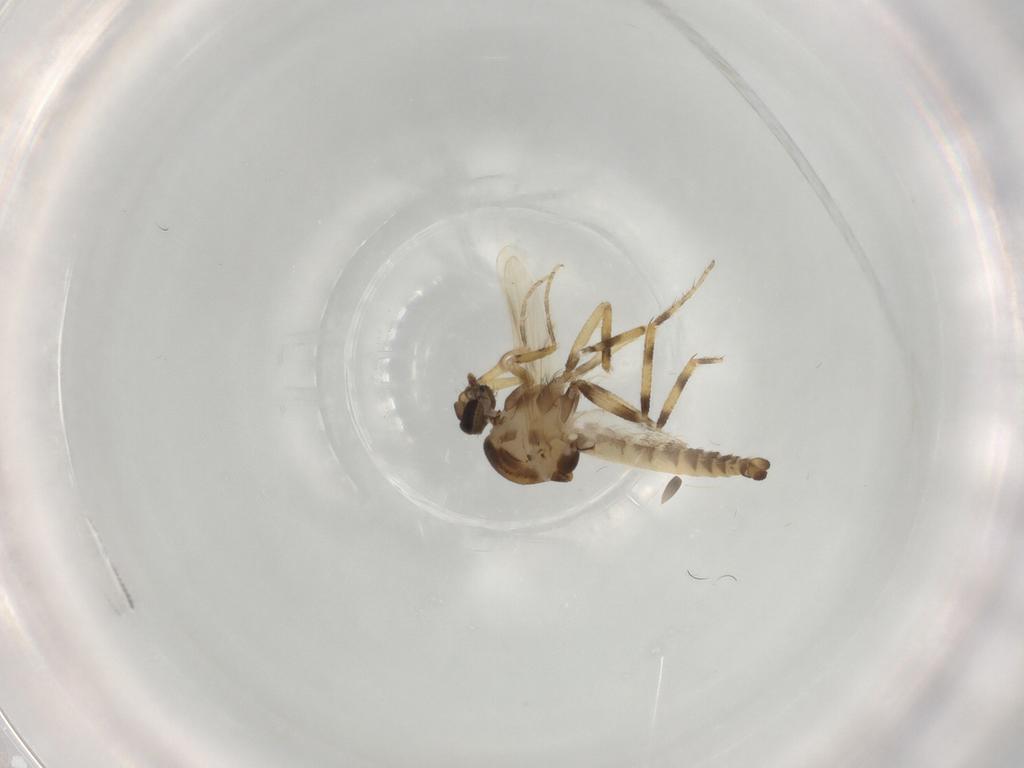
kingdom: Animalia
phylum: Arthropoda
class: Insecta
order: Diptera
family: Ceratopogonidae
